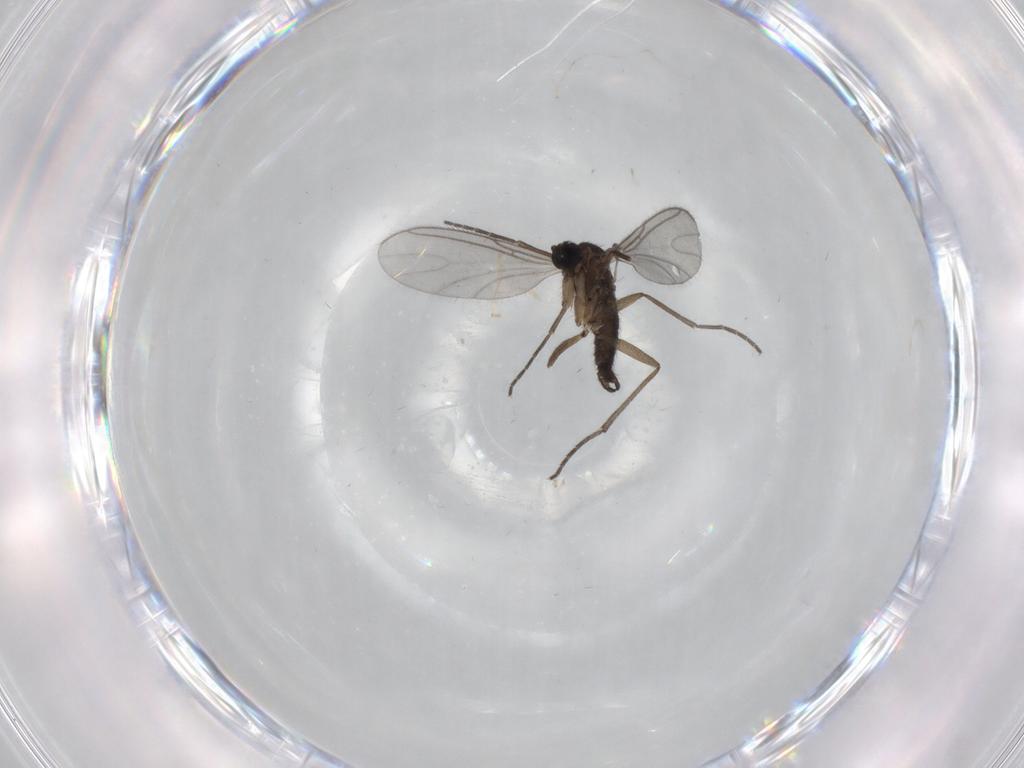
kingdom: Animalia
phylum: Arthropoda
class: Insecta
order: Diptera
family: Sciaridae
